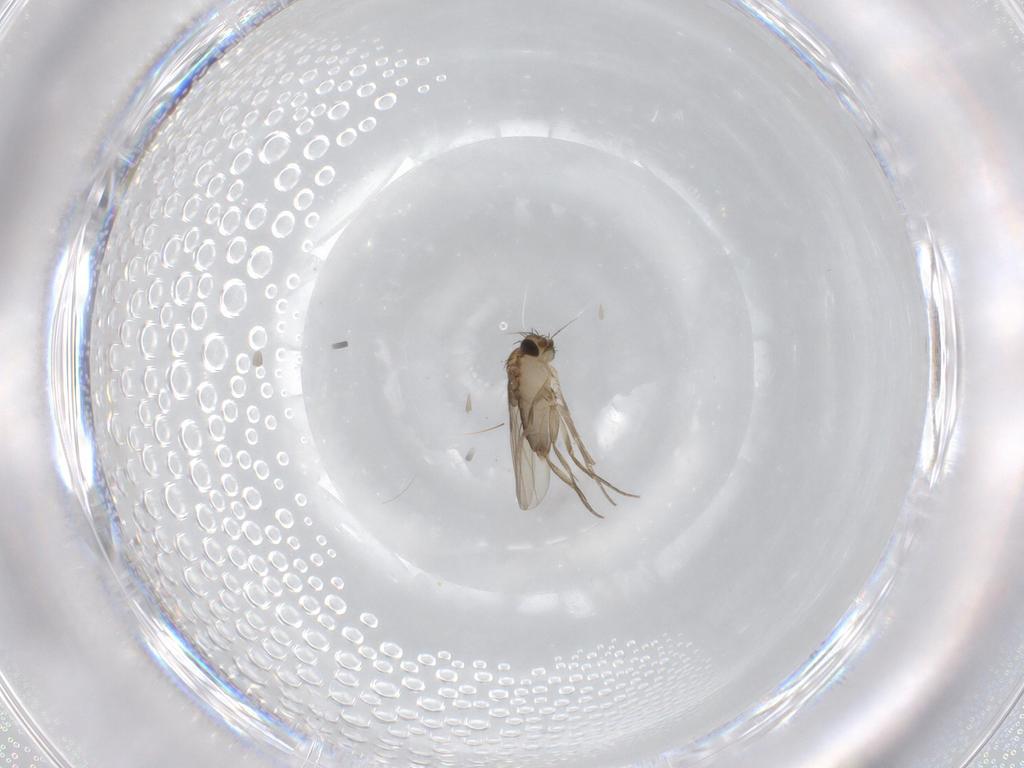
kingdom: Animalia
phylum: Arthropoda
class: Insecta
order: Diptera
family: Phoridae
